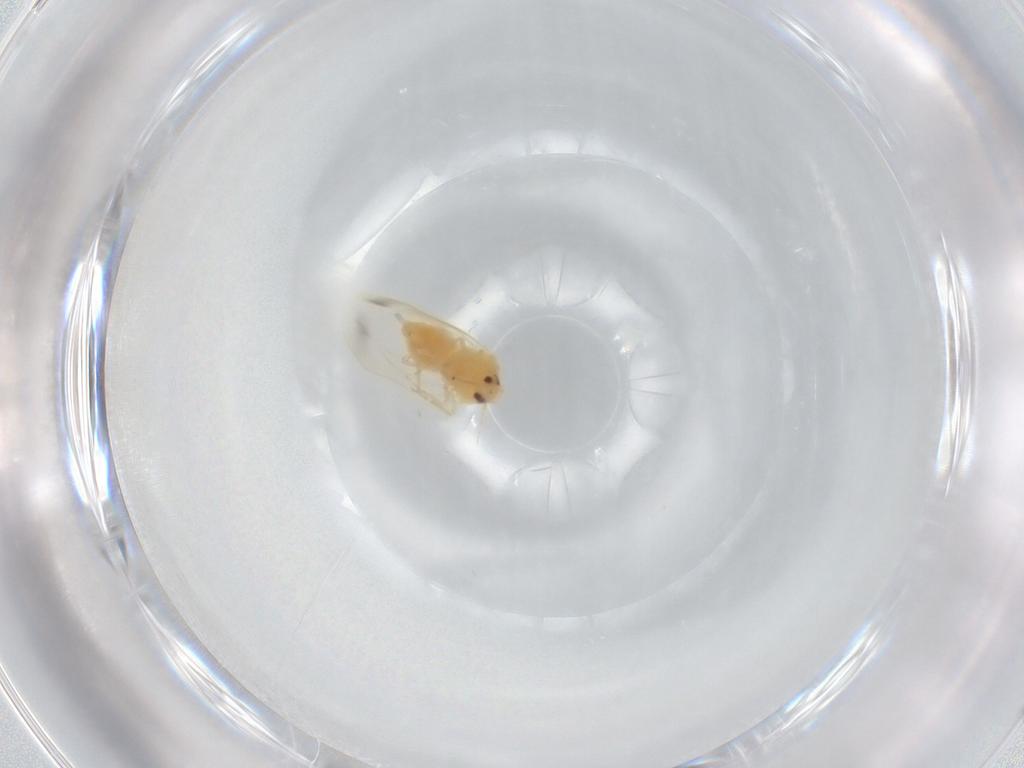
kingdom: Animalia
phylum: Arthropoda
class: Insecta
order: Hemiptera
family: Aleyrodidae
